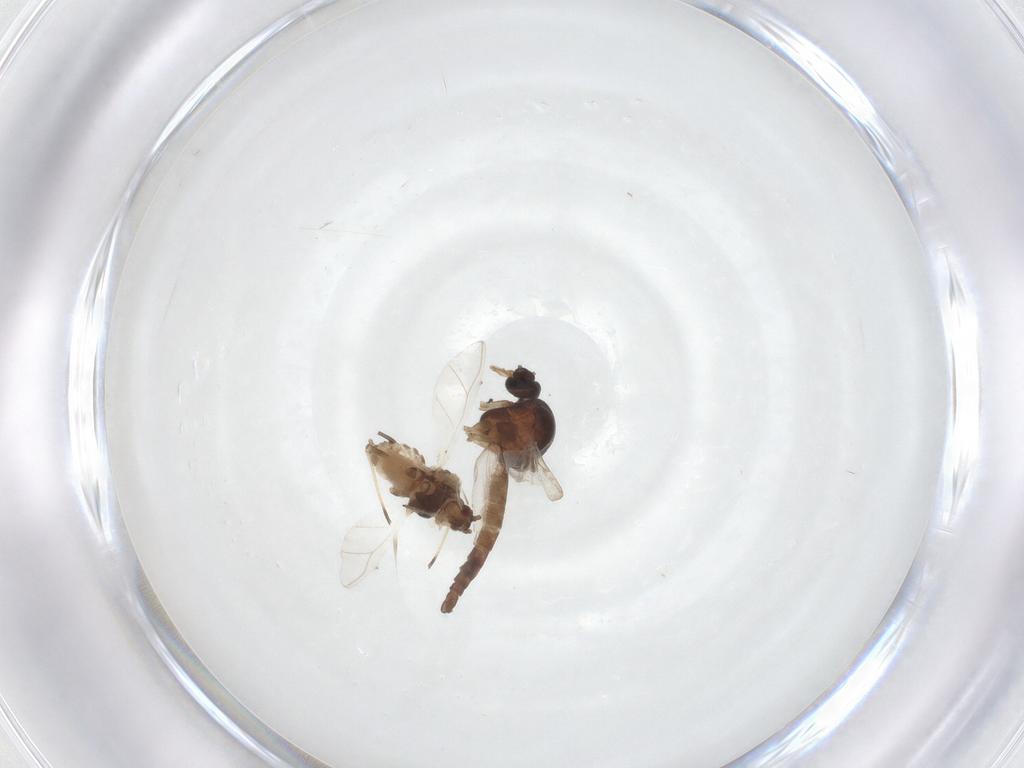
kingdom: Animalia
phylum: Arthropoda
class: Insecta
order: Diptera
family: Ceratopogonidae
